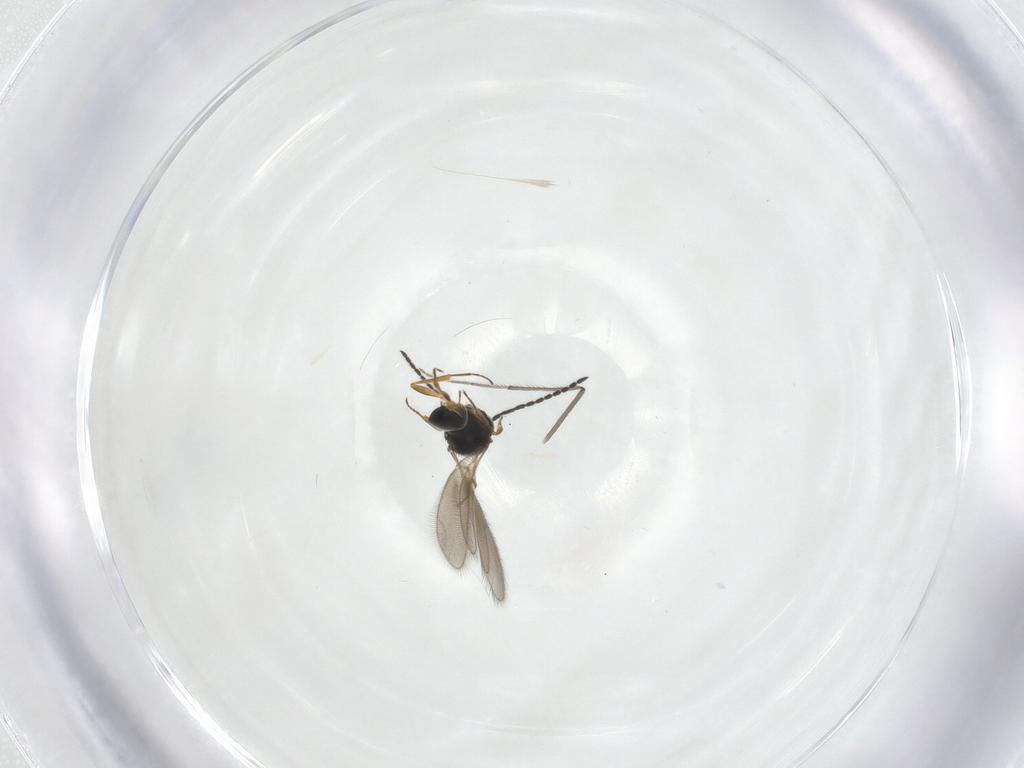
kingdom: Animalia
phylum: Arthropoda
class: Insecta
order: Hymenoptera
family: Scelionidae
